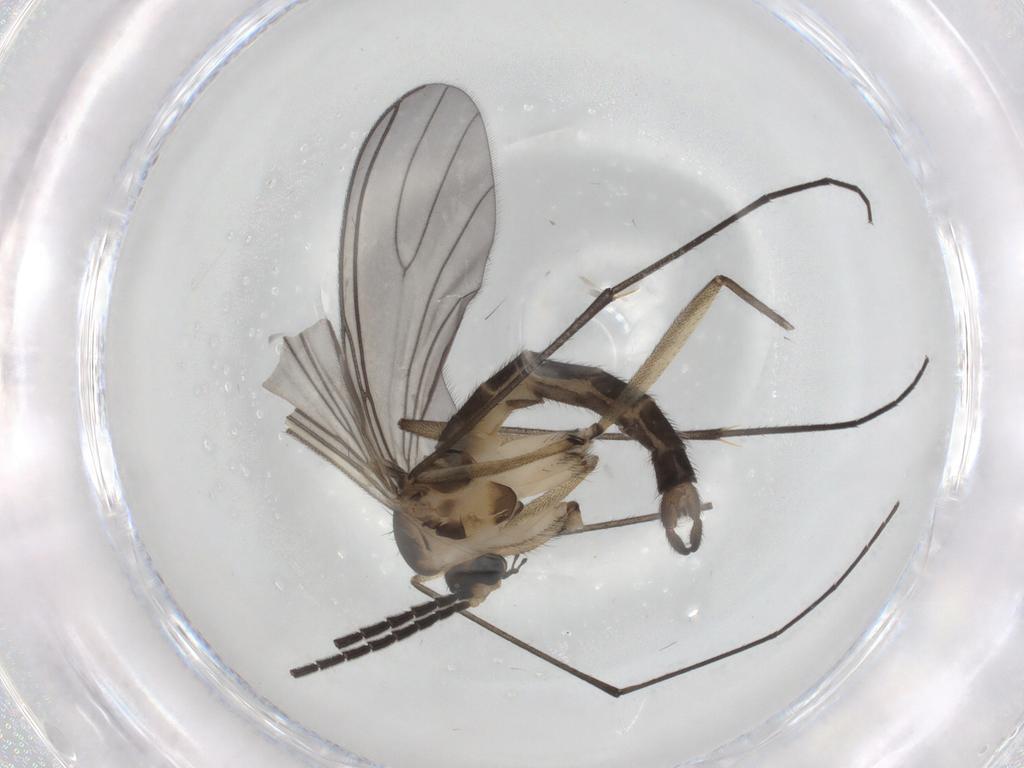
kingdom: Animalia
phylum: Arthropoda
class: Insecta
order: Diptera
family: Sciaridae
